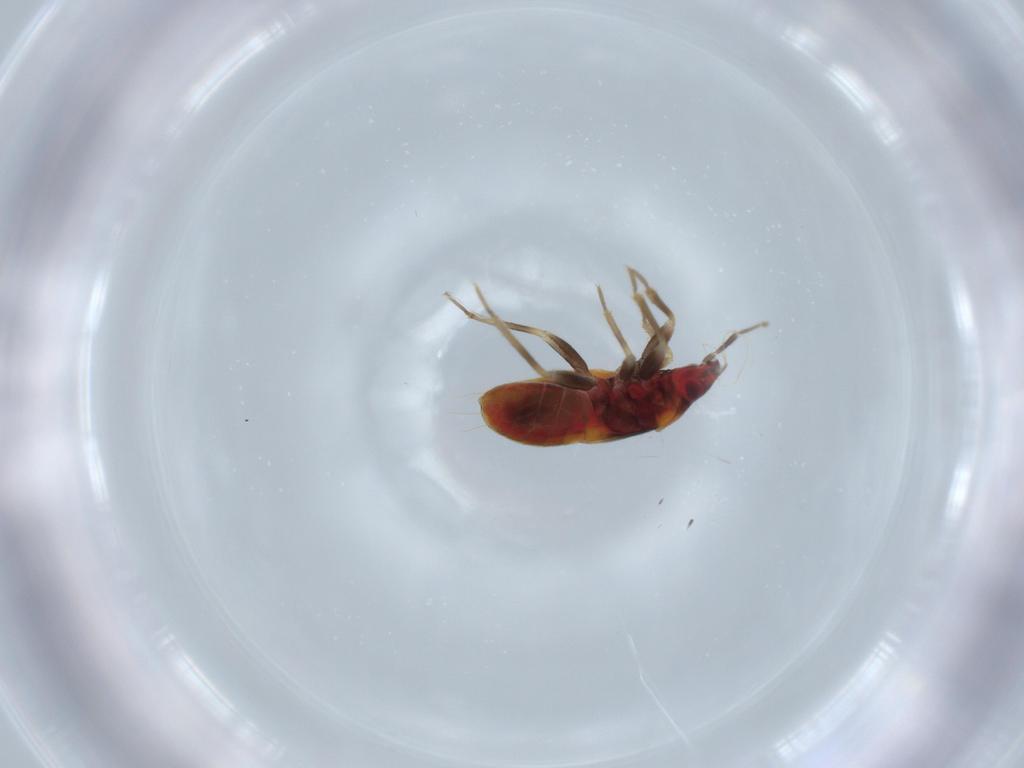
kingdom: Animalia
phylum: Arthropoda
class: Insecta
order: Hemiptera
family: Anthocoridae
